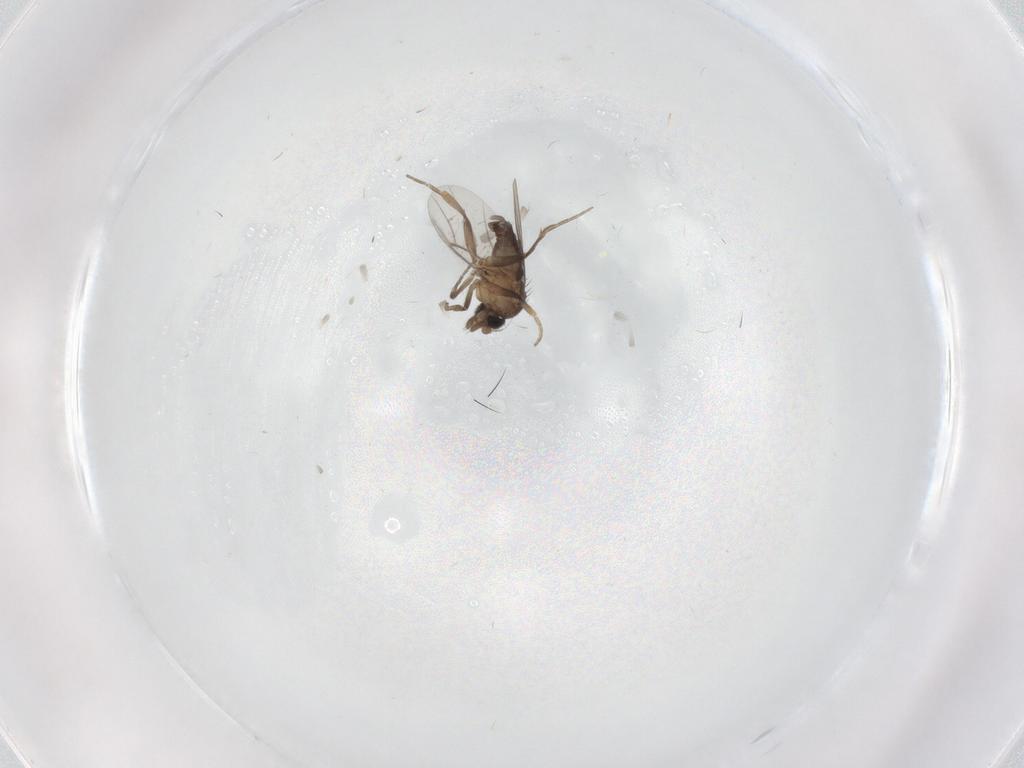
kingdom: Animalia
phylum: Arthropoda
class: Insecta
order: Diptera
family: Phoridae
